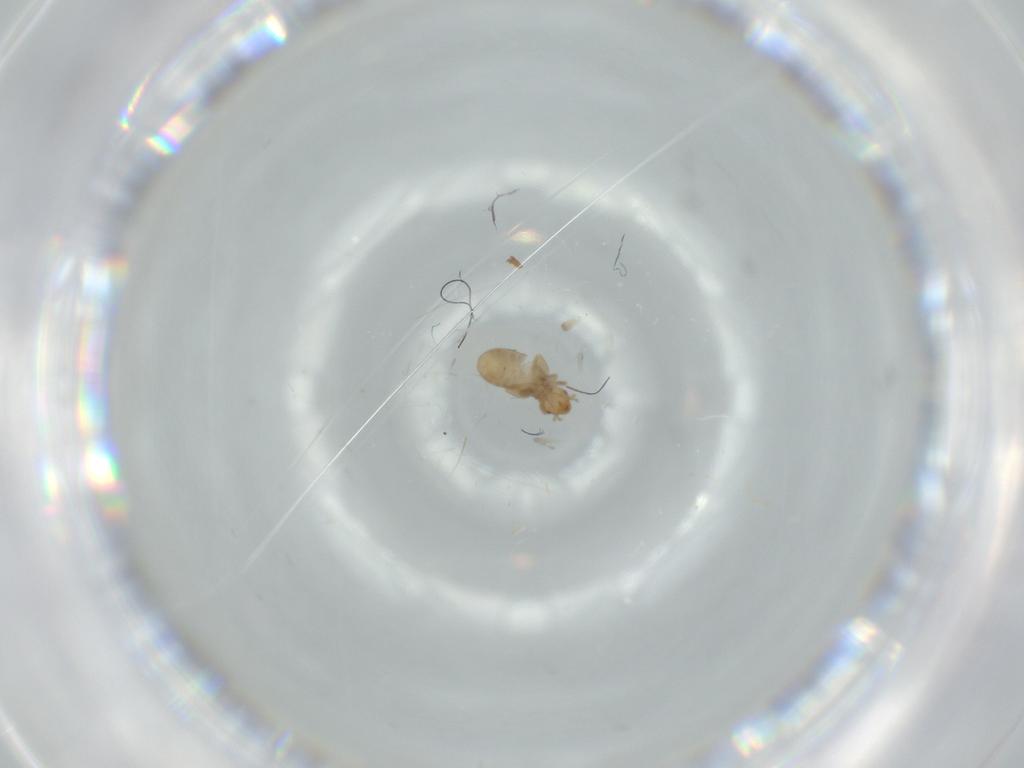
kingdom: Animalia
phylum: Arthropoda
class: Insecta
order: Psocodea
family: Liposcelididae
